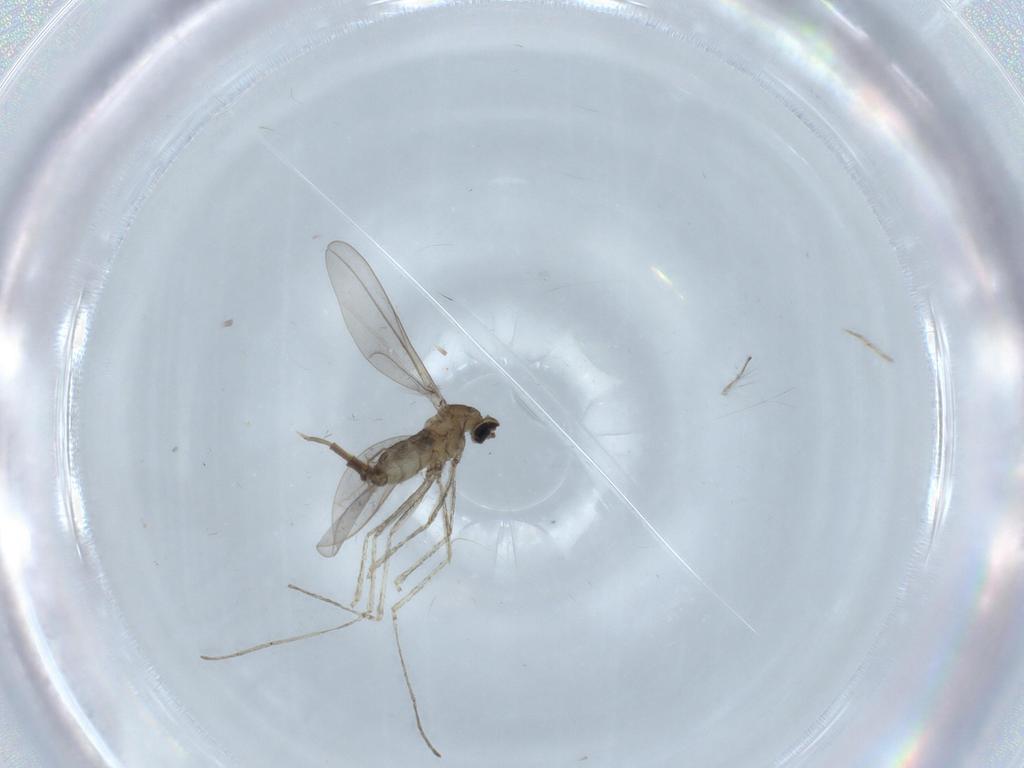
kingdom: Animalia
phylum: Arthropoda
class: Insecta
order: Diptera
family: Cecidomyiidae
